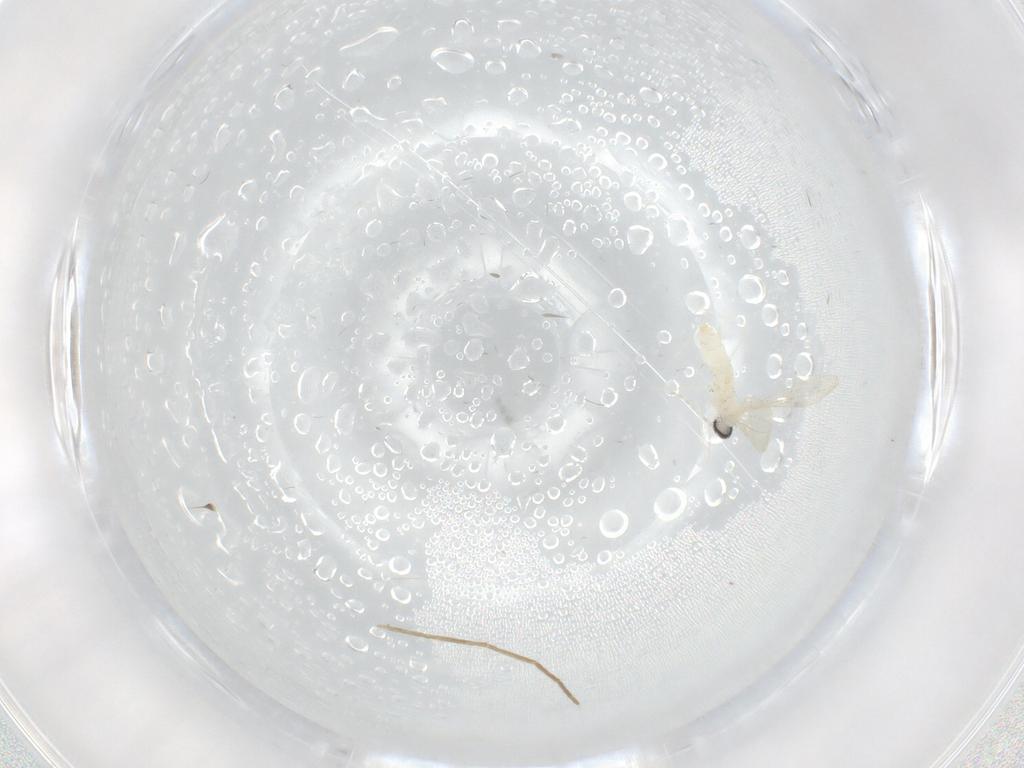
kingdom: Animalia
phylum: Arthropoda
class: Insecta
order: Diptera
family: Cecidomyiidae
